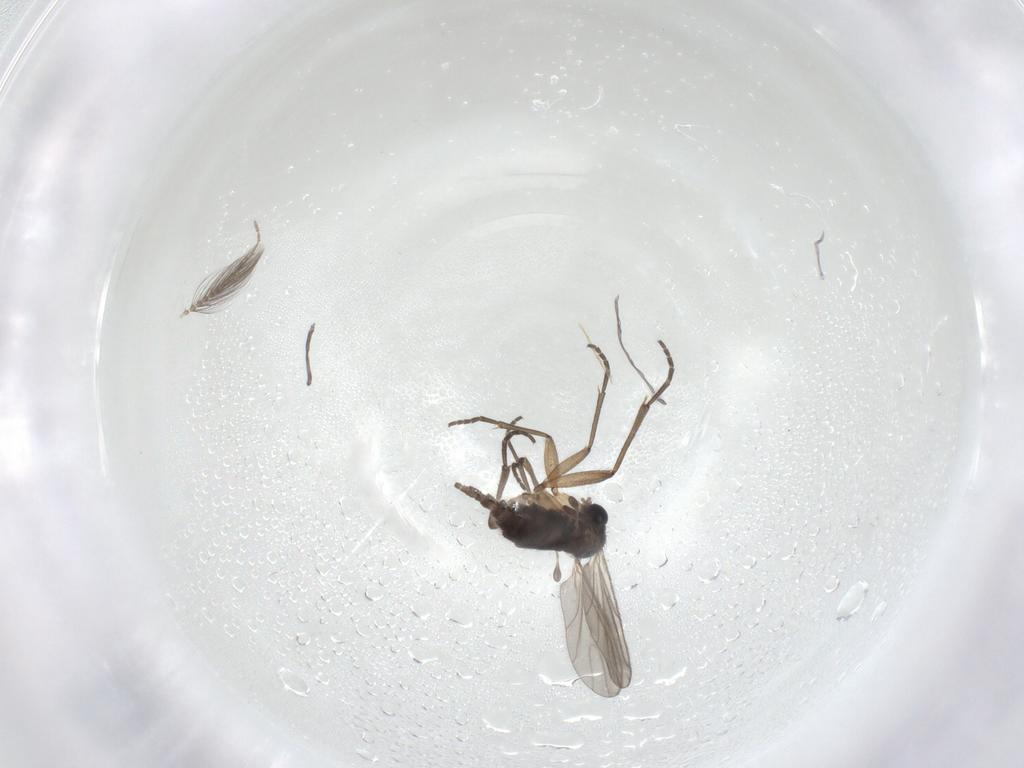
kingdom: Animalia
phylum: Arthropoda
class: Insecta
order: Diptera
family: Ceratopogonidae
